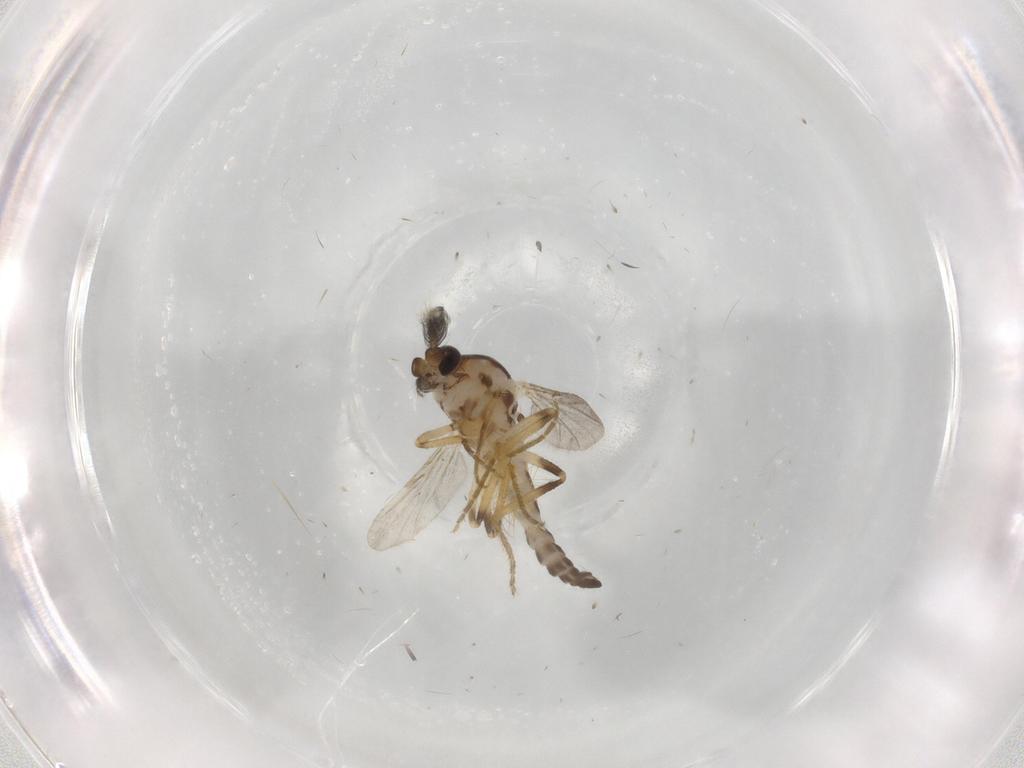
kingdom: Animalia
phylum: Arthropoda
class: Insecta
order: Diptera
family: Ceratopogonidae
